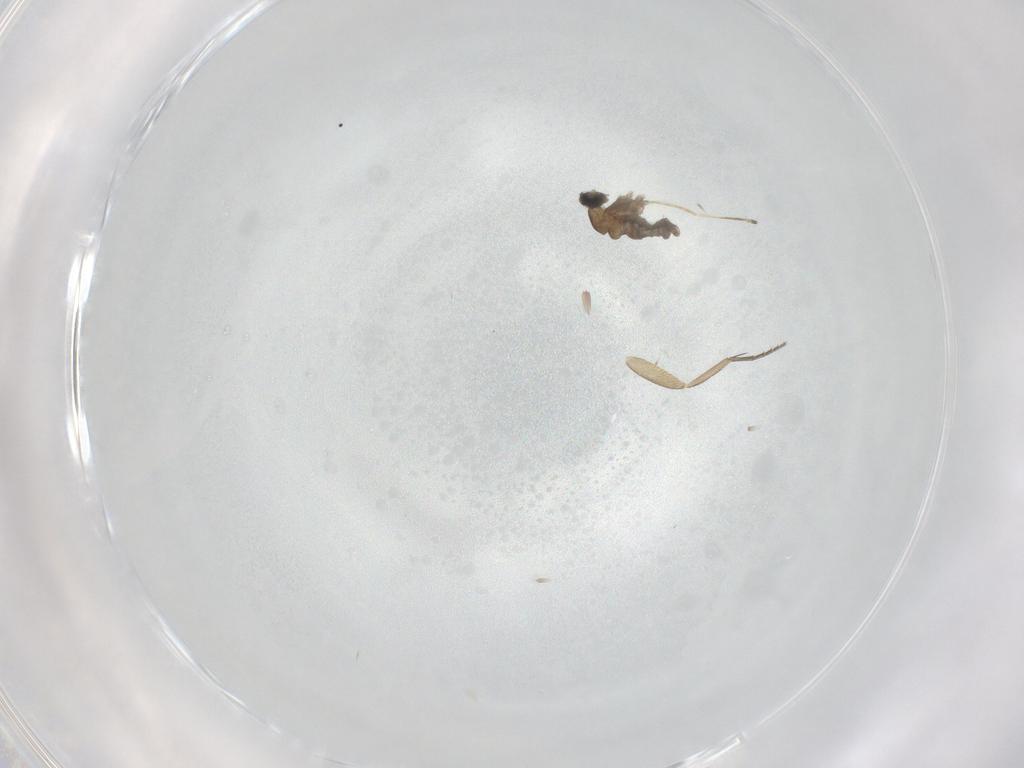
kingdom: Animalia
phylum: Arthropoda
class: Insecta
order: Diptera
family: Cecidomyiidae
